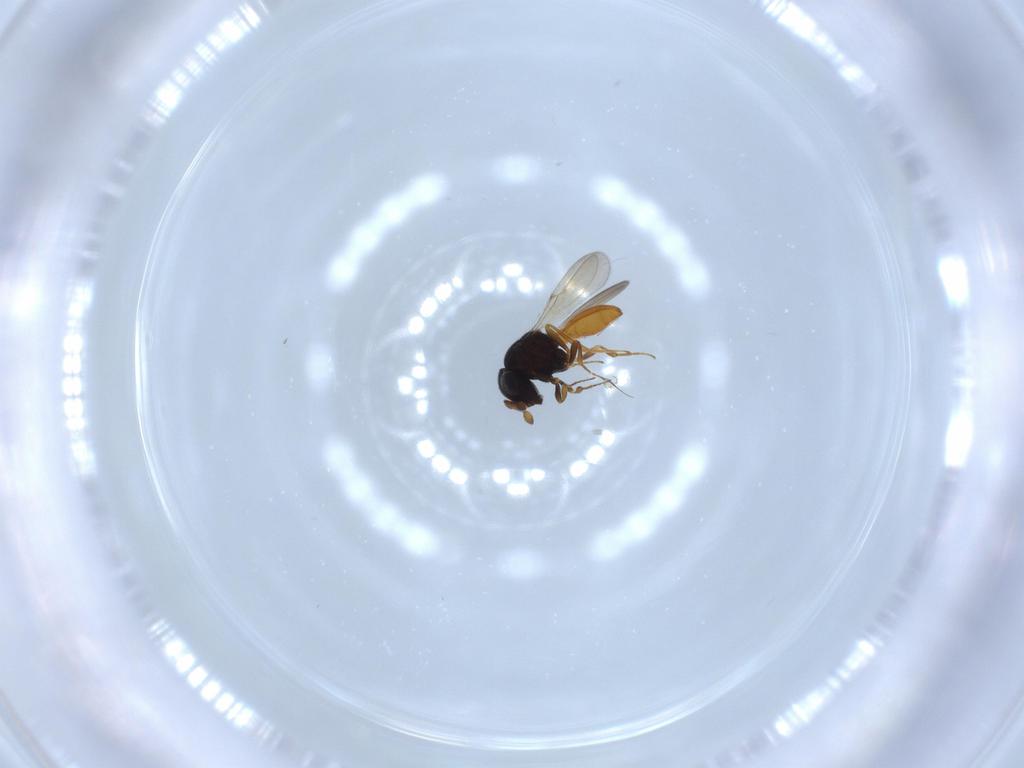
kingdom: Animalia
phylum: Arthropoda
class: Insecta
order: Hymenoptera
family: Scelionidae
